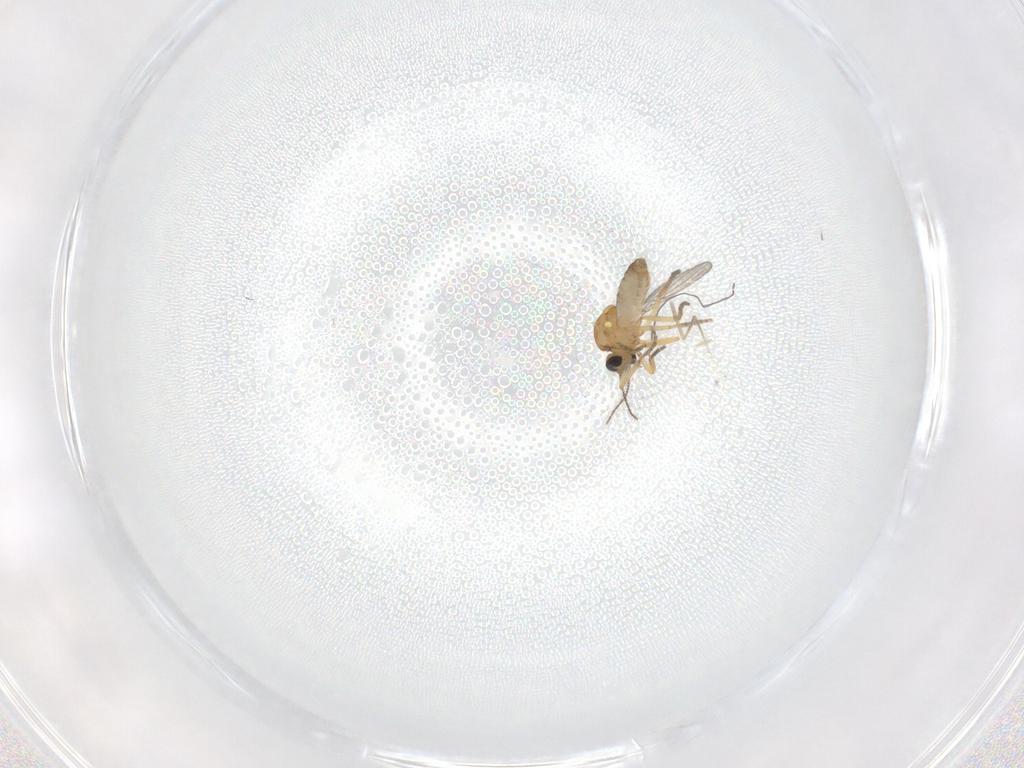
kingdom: Animalia
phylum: Arthropoda
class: Insecta
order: Diptera
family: Ceratopogonidae
